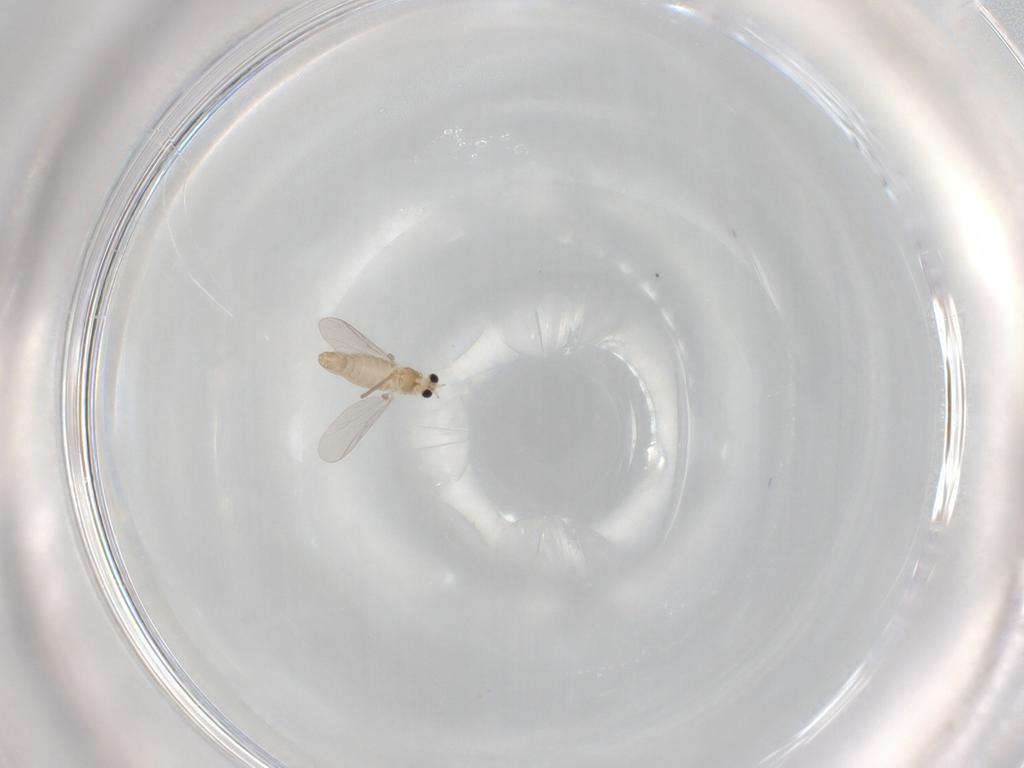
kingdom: Animalia
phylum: Arthropoda
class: Insecta
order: Diptera
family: Chironomidae
